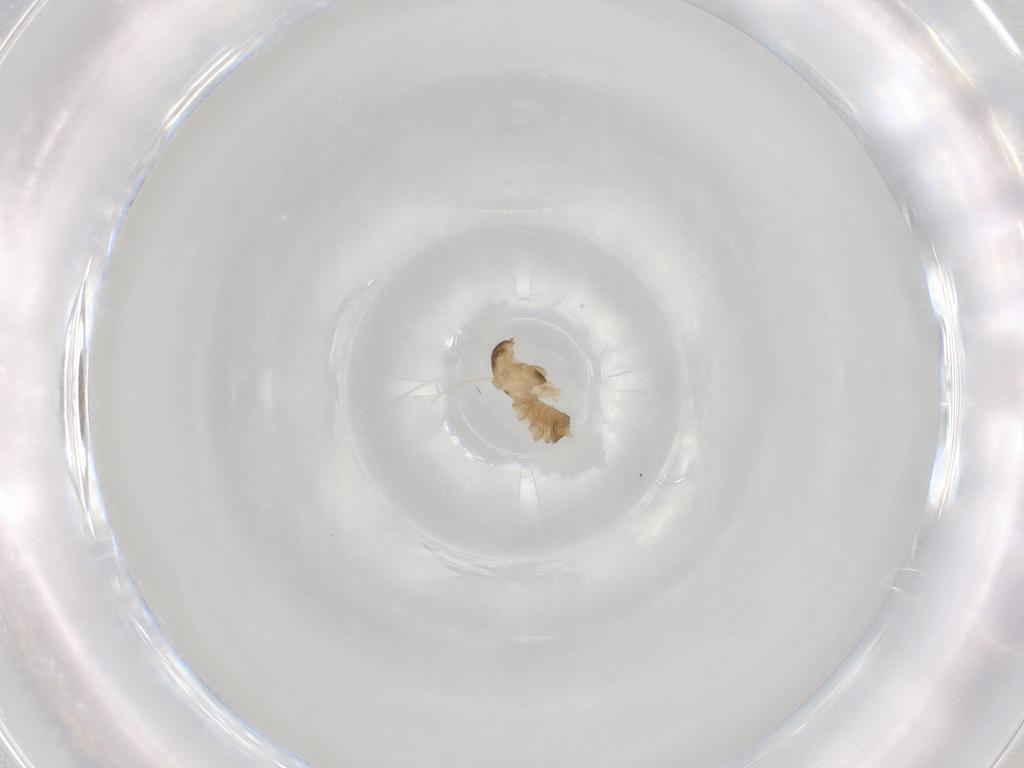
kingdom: Animalia
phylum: Arthropoda
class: Insecta
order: Diptera
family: Cecidomyiidae
